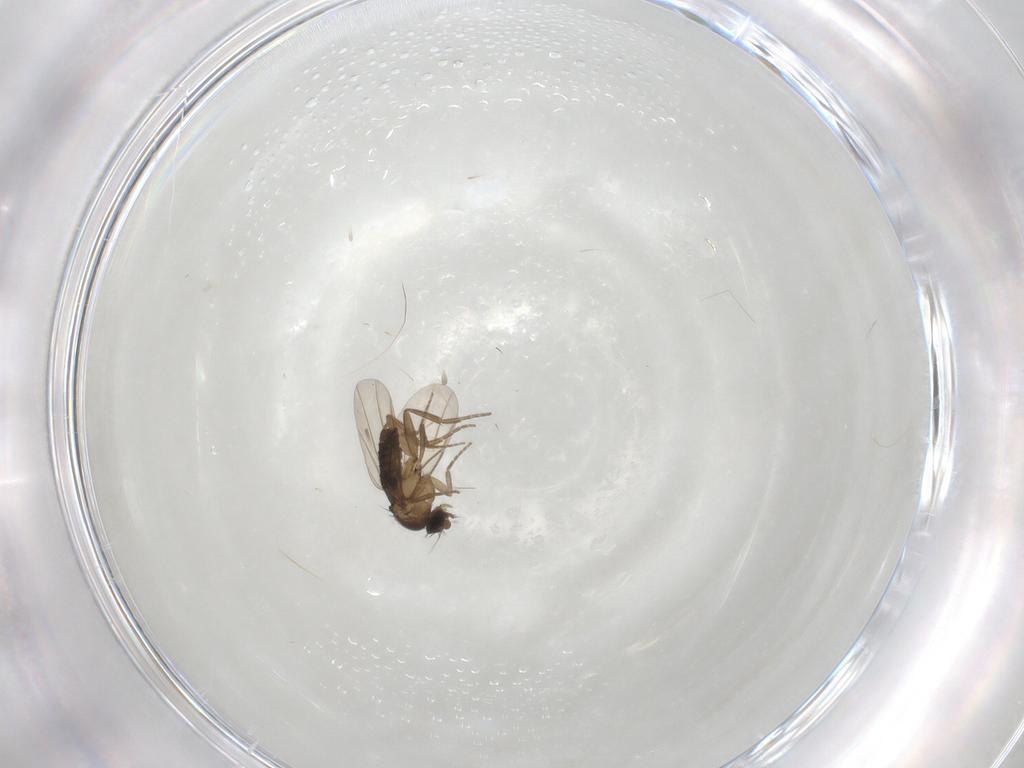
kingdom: Animalia
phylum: Arthropoda
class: Insecta
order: Diptera
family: Phoridae
